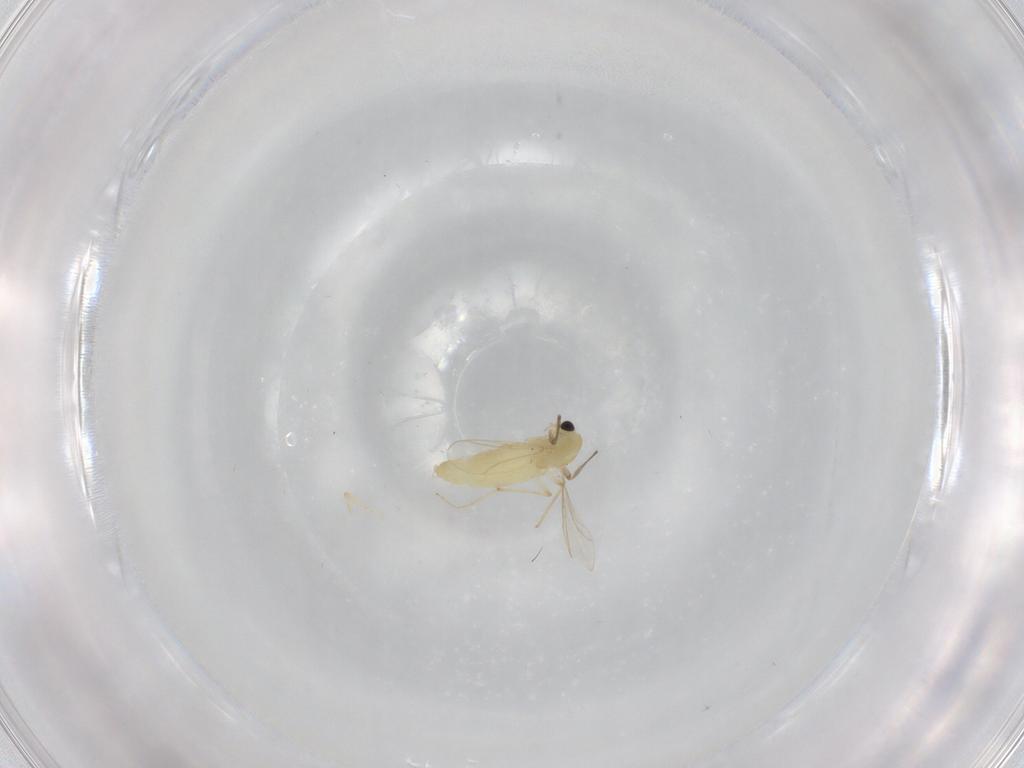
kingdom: Animalia
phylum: Arthropoda
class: Insecta
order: Diptera
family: Chironomidae
